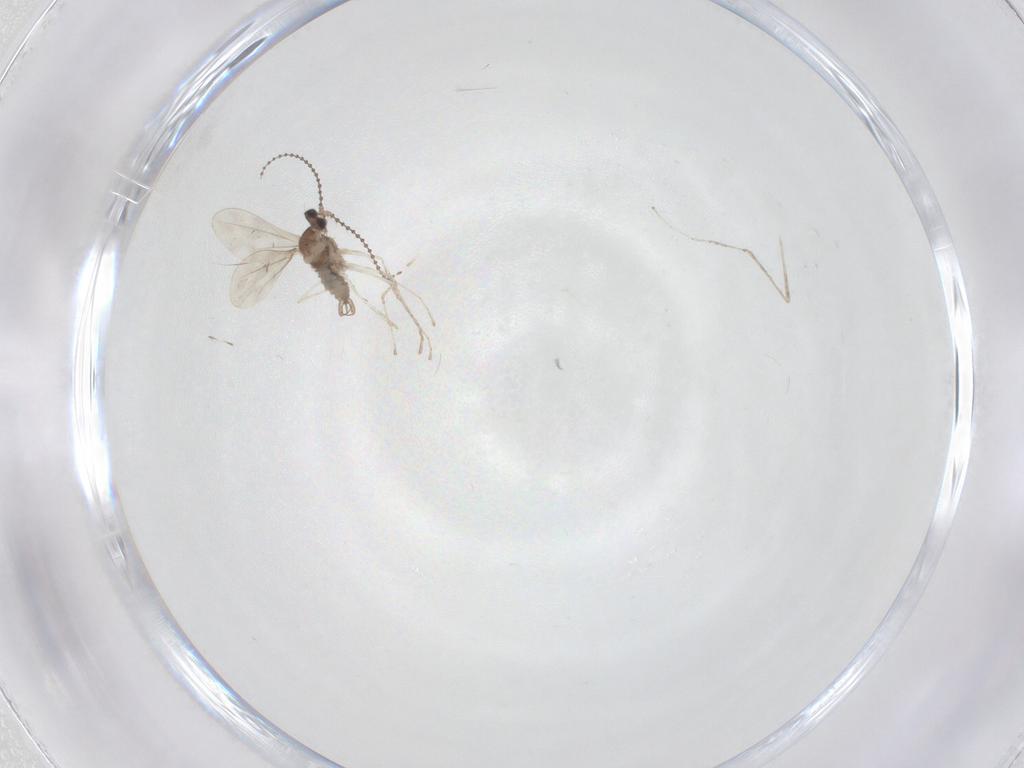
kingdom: Animalia
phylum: Arthropoda
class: Insecta
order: Diptera
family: Cecidomyiidae
